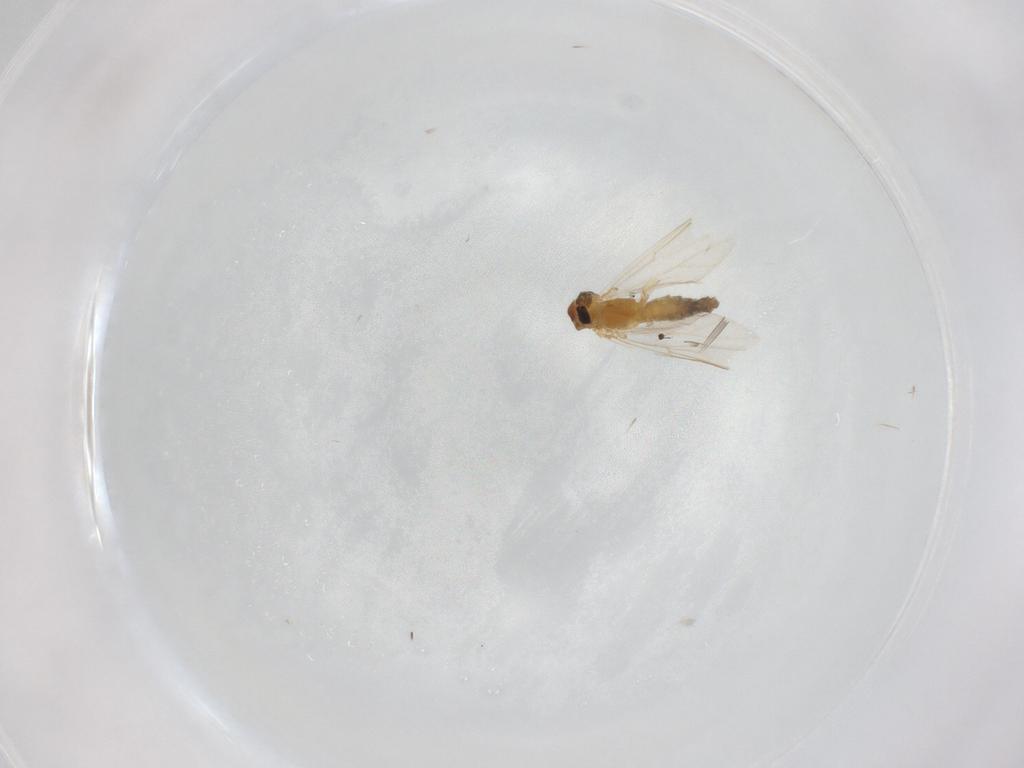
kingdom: Animalia
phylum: Arthropoda
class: Insecta
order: Diptera
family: Chironomidae
